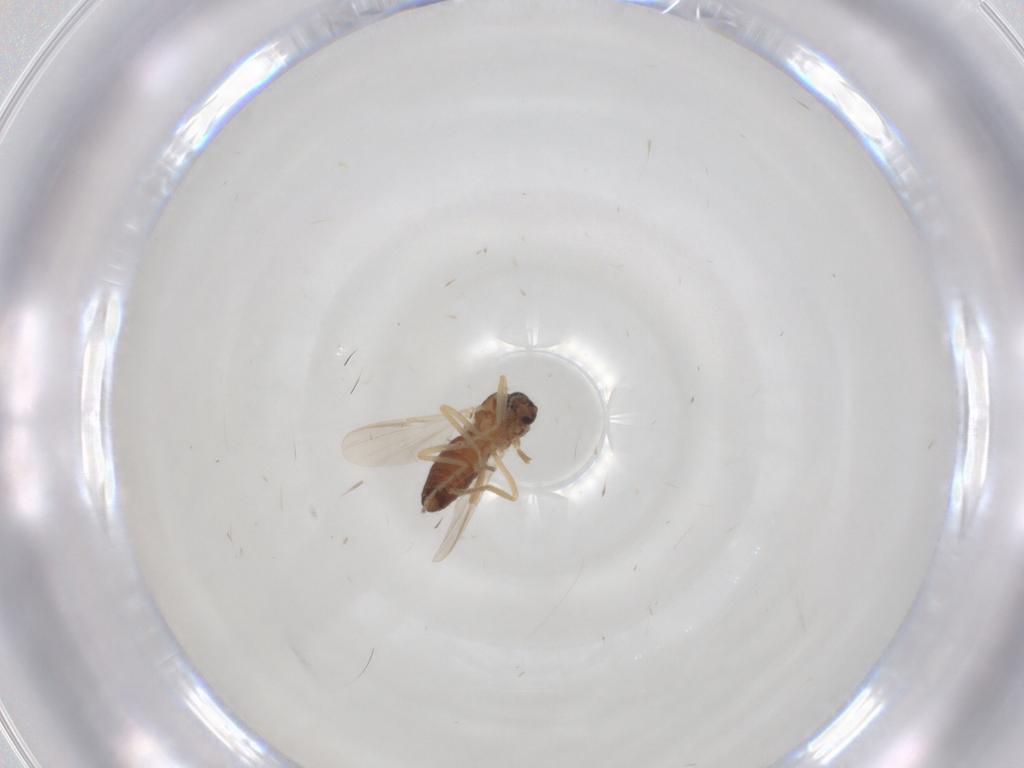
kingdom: Animalia
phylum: Arthropoda
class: Insecta
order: Diptera
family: Ceratopogonidae
